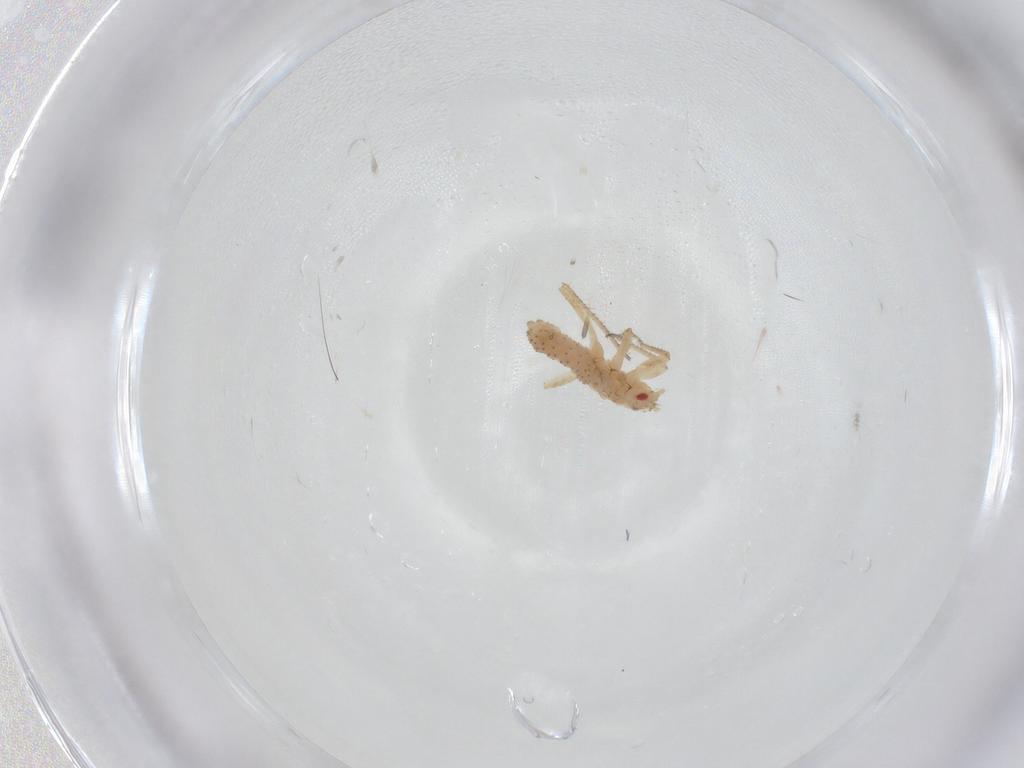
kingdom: Animalia
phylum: Arthropoda
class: Insecta
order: Hemiptera
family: Aphididae
